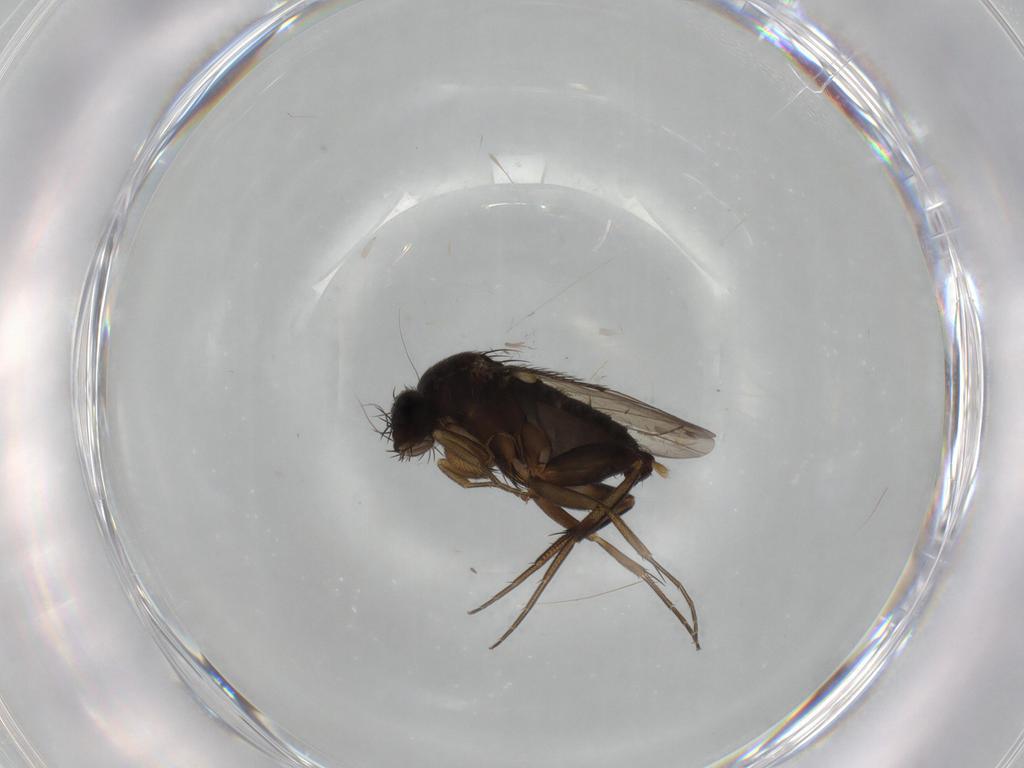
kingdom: Animalia
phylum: Arthropoda
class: Insecta
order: Diptera
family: Phoridae
